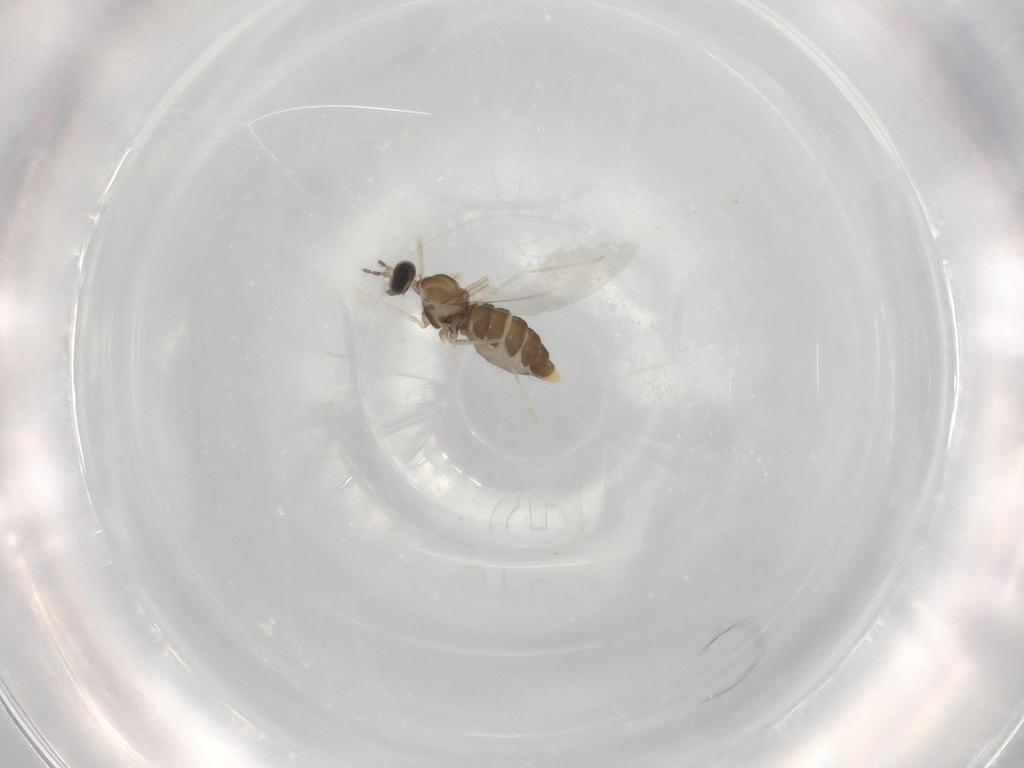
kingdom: Animalia
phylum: Arthropoda
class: Insecta
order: Diptera
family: Cecidomyiidae
